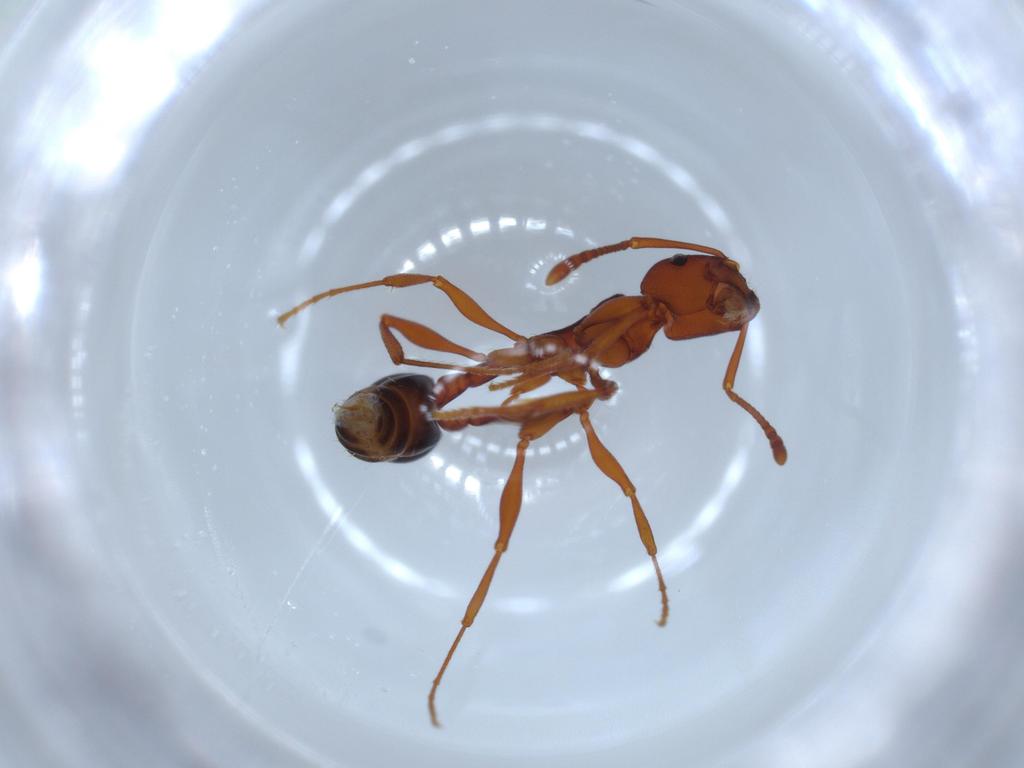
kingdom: Animalia
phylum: Arthropoda
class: Insecta
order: Hymenoptera
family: Formicidae
